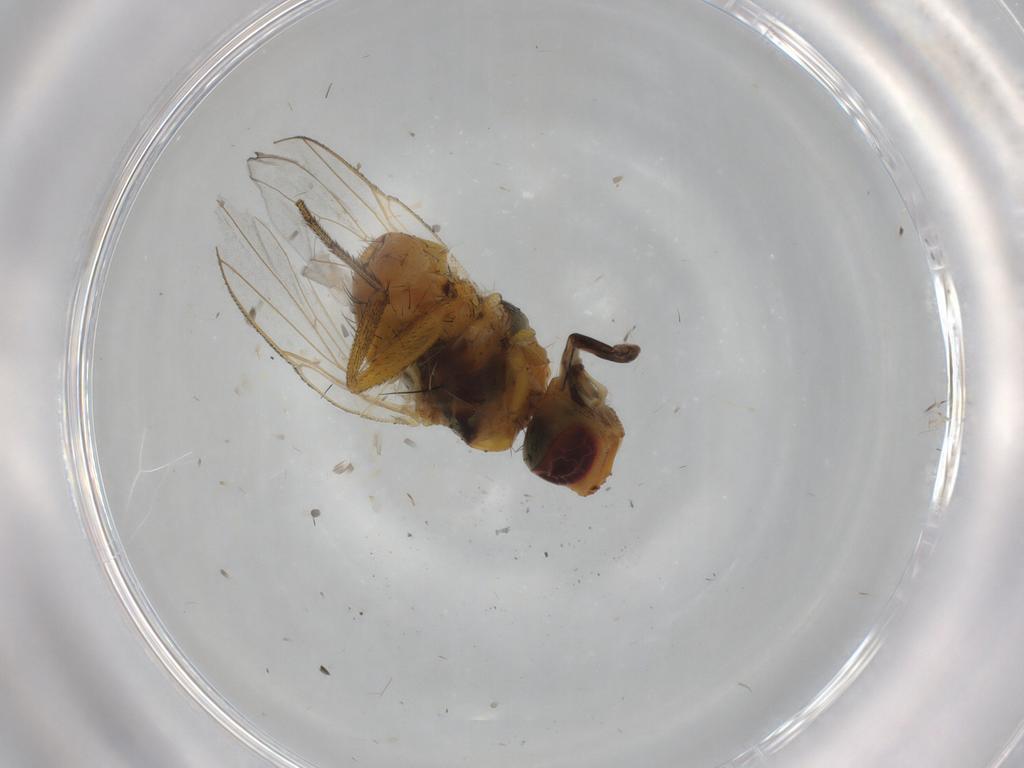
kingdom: Animalia
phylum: Arthropoda
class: Insecta
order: Diptera
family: Muscidae
